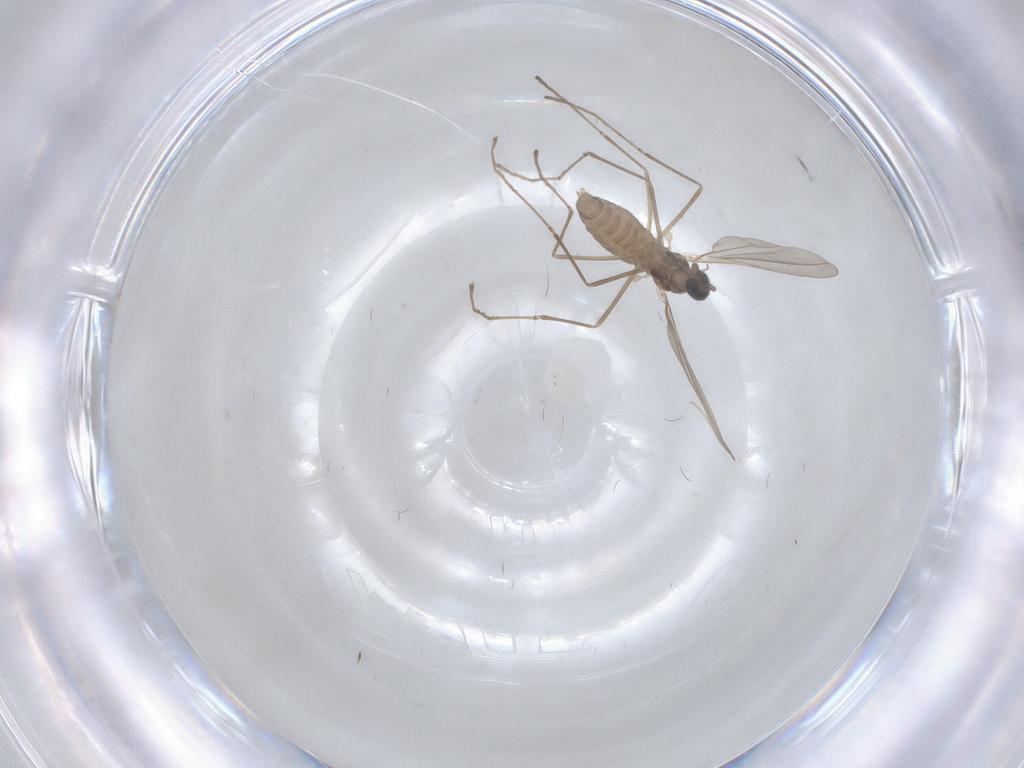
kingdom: Animalia
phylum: Arthropoda
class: Insecta
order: Diptera
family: Cecidomyiidae
